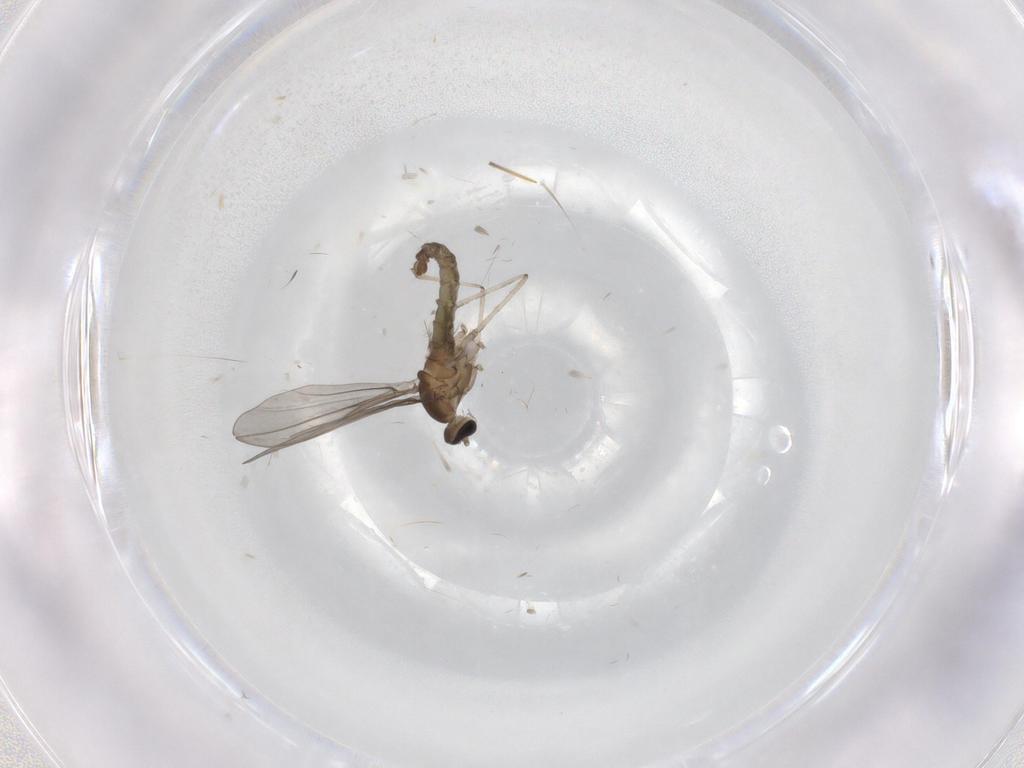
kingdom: Animalia
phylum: Arthropoda
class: Insecta
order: Diptera
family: Cecidomyiidae
